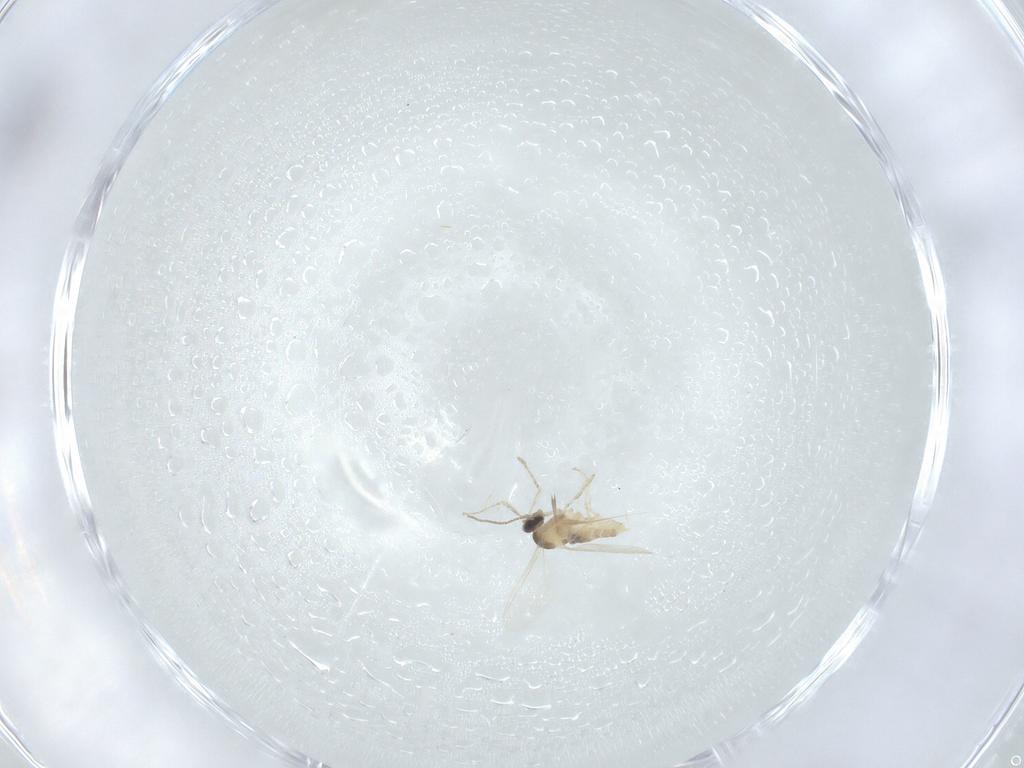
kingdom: Animalia
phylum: Arthropoda
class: Insecta
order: Diptera
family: Cecidomyiidae
